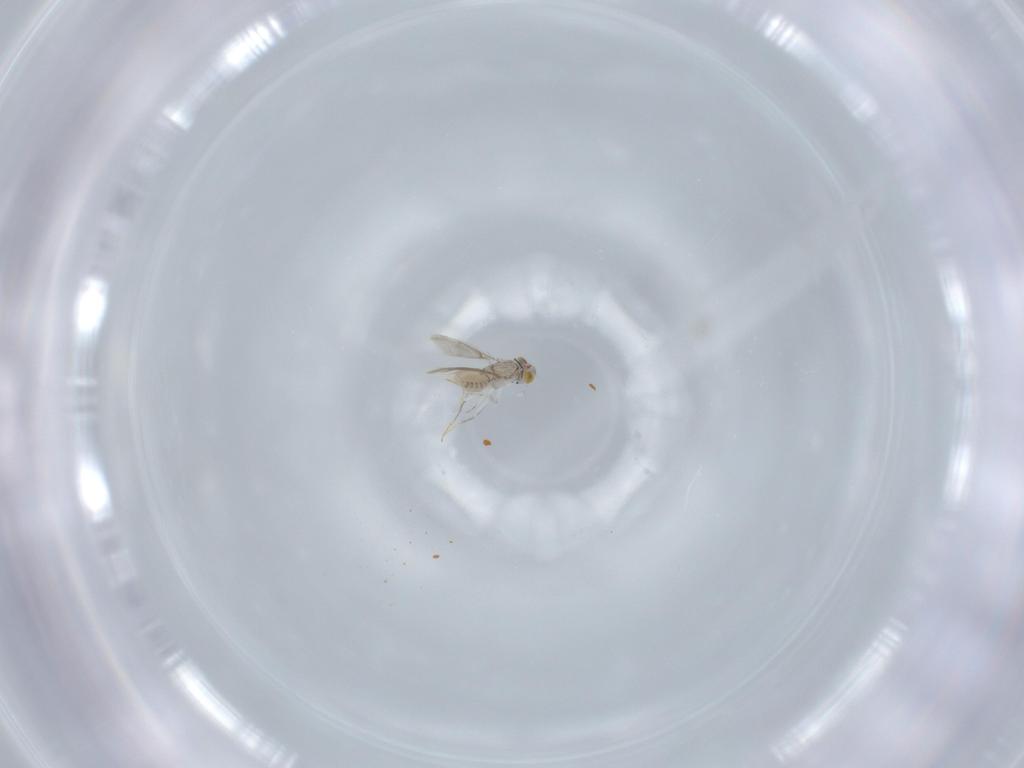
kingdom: Animalia
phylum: Arthropoda
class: Insecta
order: Hymenoptera
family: Aphelinidae
